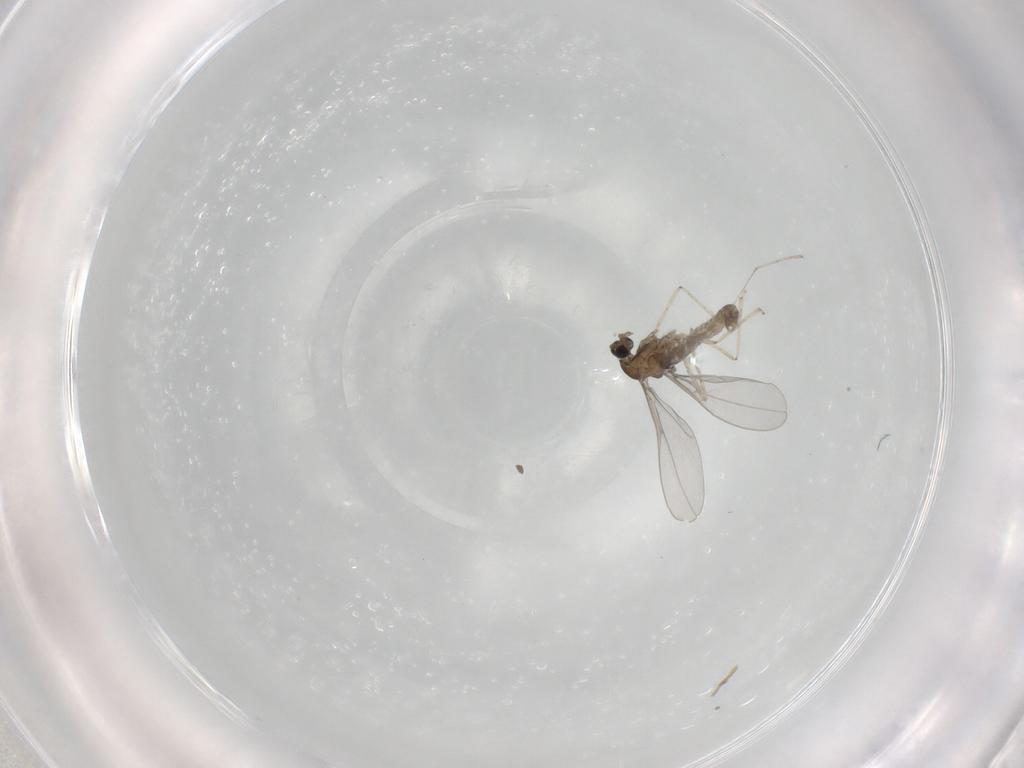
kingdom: Animalia
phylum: Arthropoda
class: Insecta
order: Diptera
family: Cecidomyiidae
